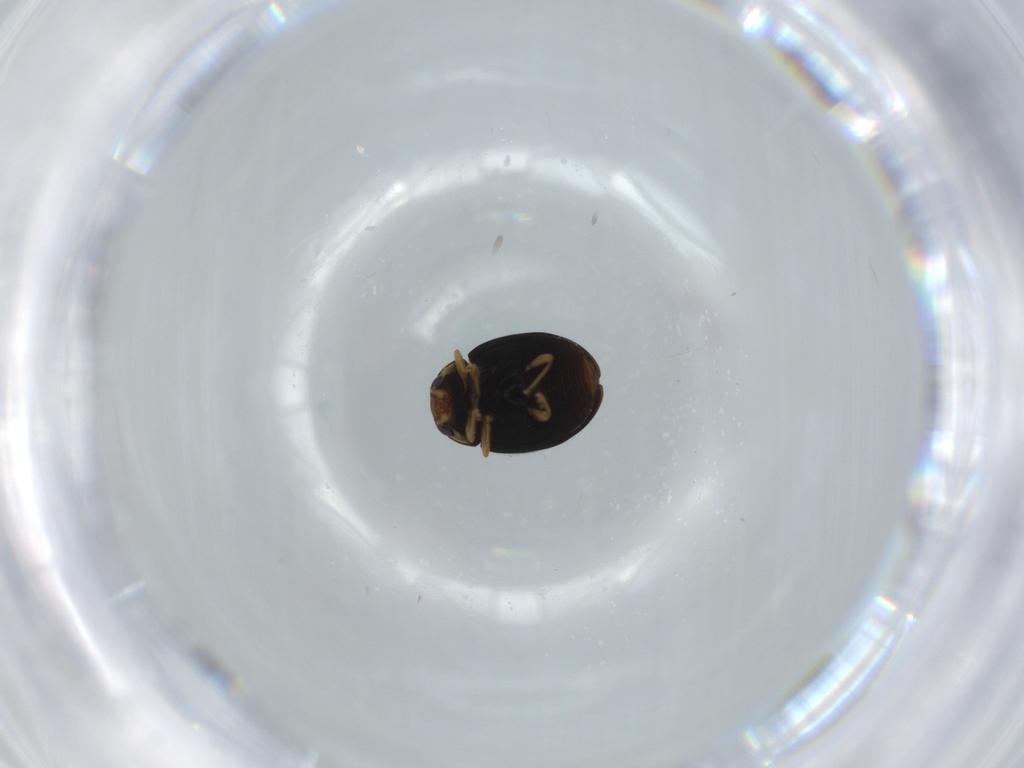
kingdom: Animalia
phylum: Arthropoda
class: Insecta
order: Coleoptera
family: Coccinellidae
